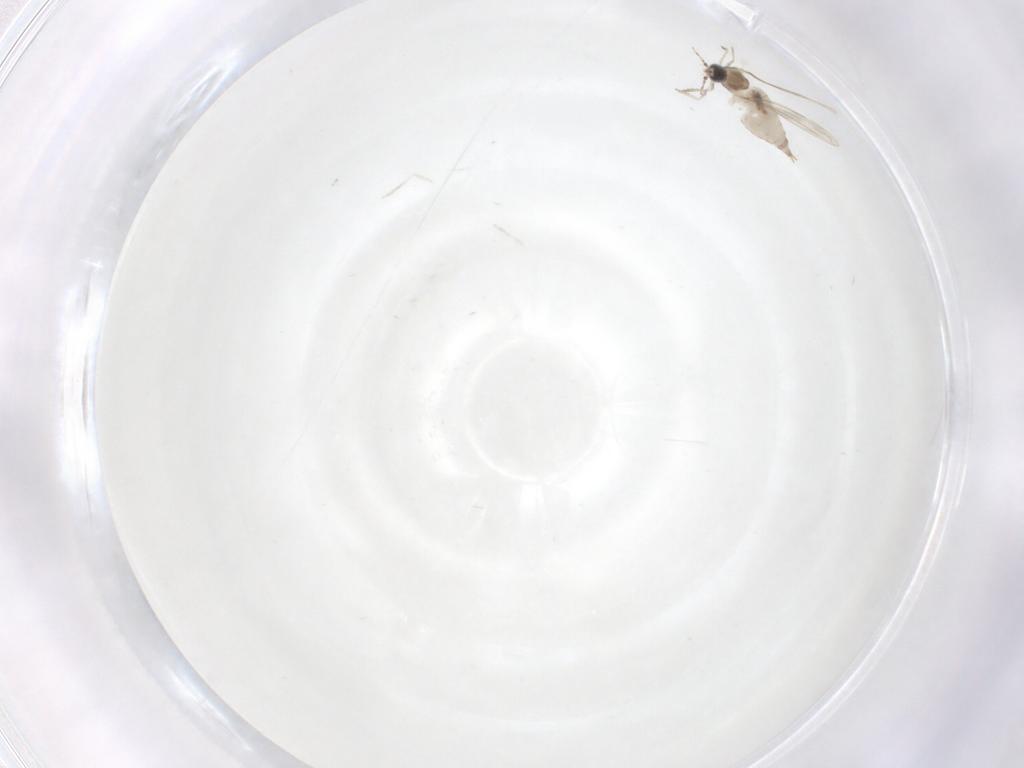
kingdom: Animalia
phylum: Arthropoda
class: Insecta
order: Diptera
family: Cecidomyiidae
